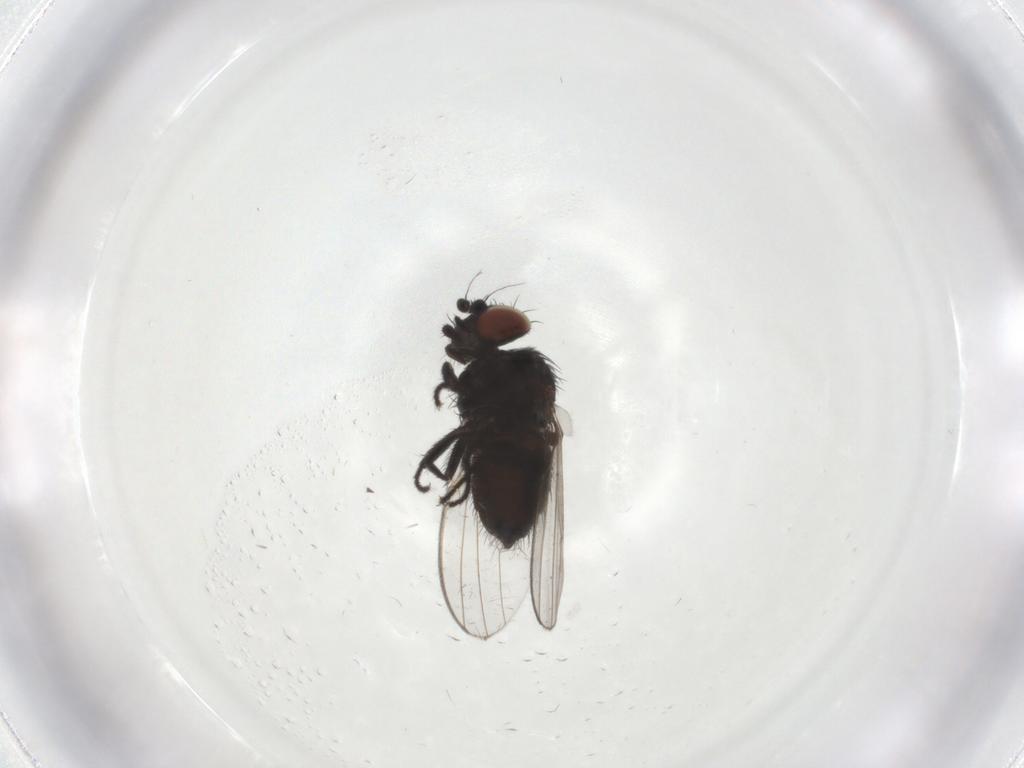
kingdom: Animalia
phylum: Arthropoda
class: Insecta
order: Diptera
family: Milichiidae
